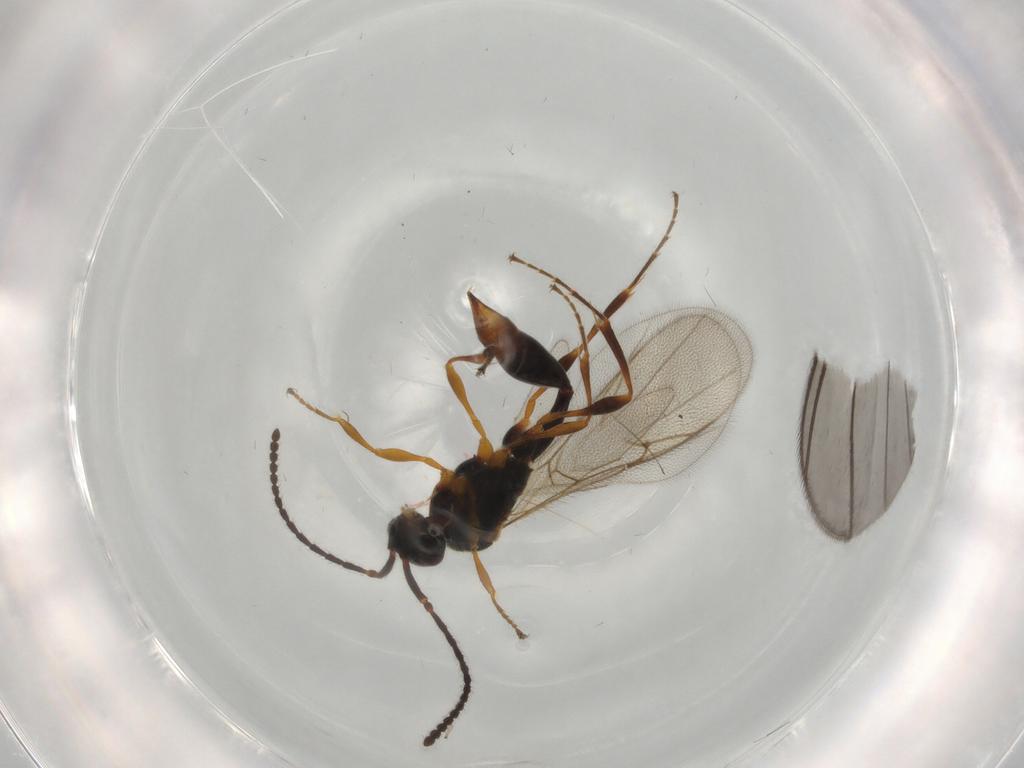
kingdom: Animalia
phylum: Arthropoda
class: Insecta
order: Hymenoptera
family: Diapriidae
